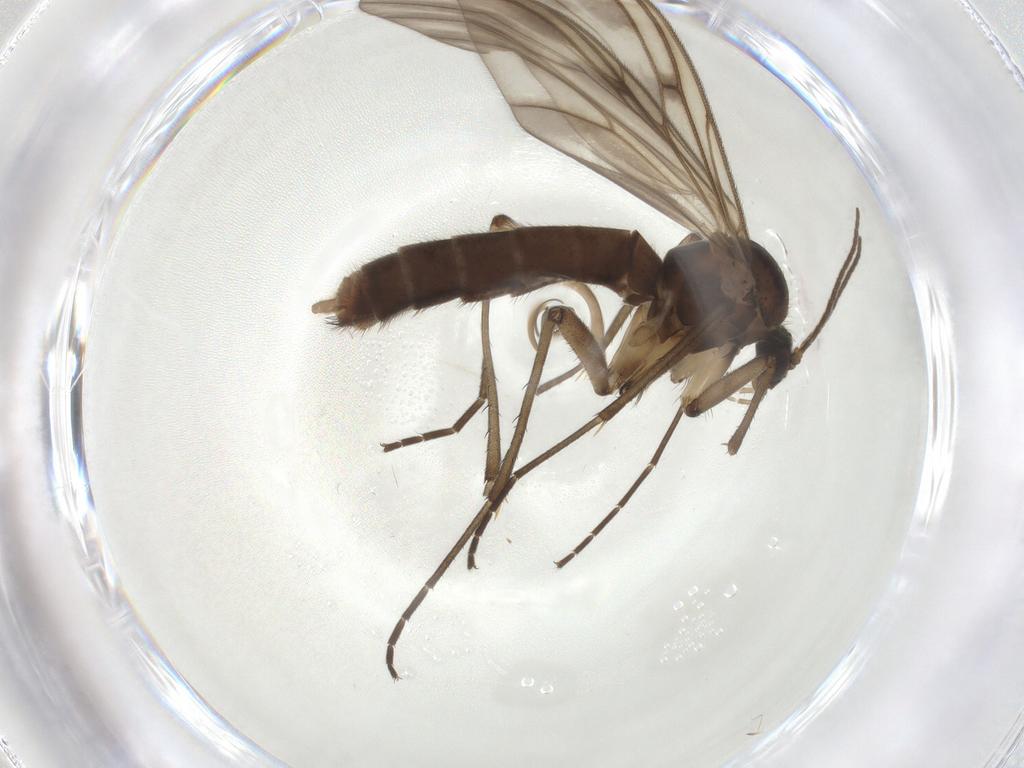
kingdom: Animalia
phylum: Arthropoda
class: Insecta
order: Diptera
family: Mycetophilidae
